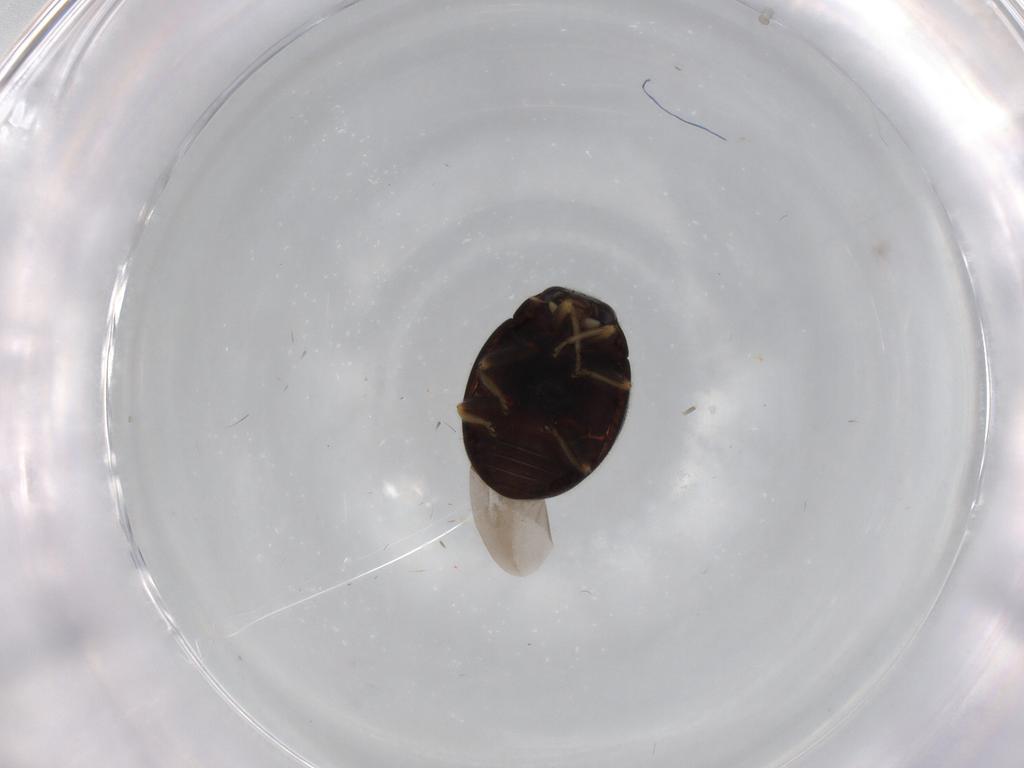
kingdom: Animalia
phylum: Arthropoda
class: Insecta
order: Coleoptera
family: Coccinellidae
